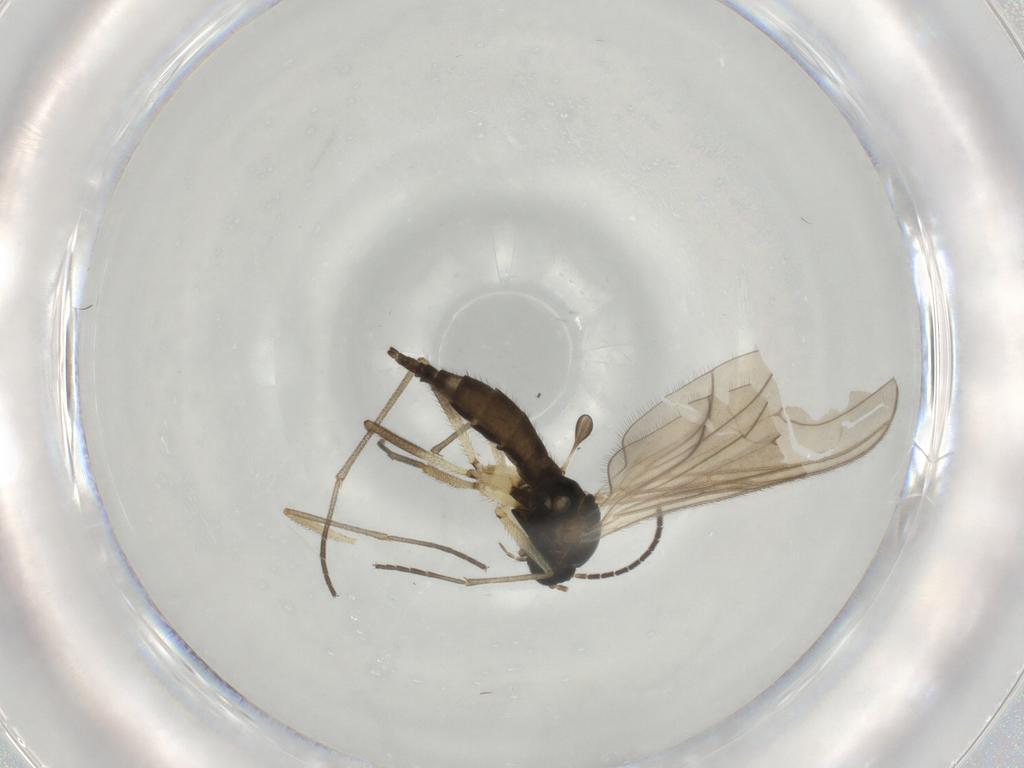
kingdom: Animalia
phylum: Arthropoda
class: Insecta
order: Diptera
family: Sciaridae
